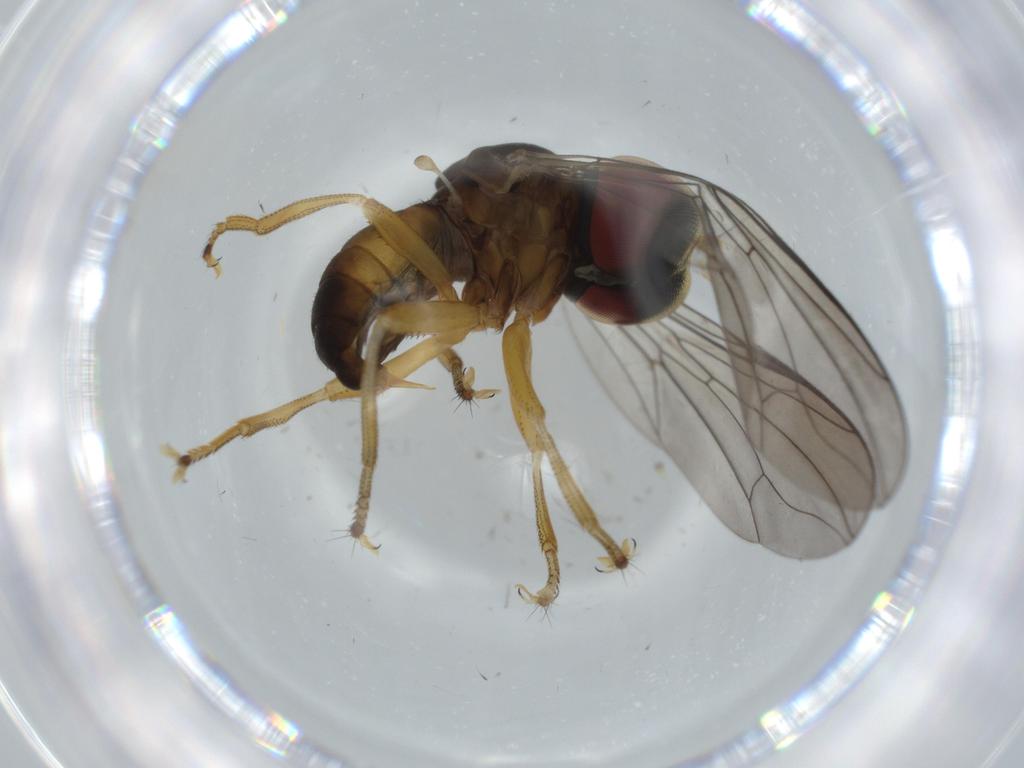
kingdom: Animalia
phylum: Arthropoda
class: Insecta
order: Diptera
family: Pipunculidae
